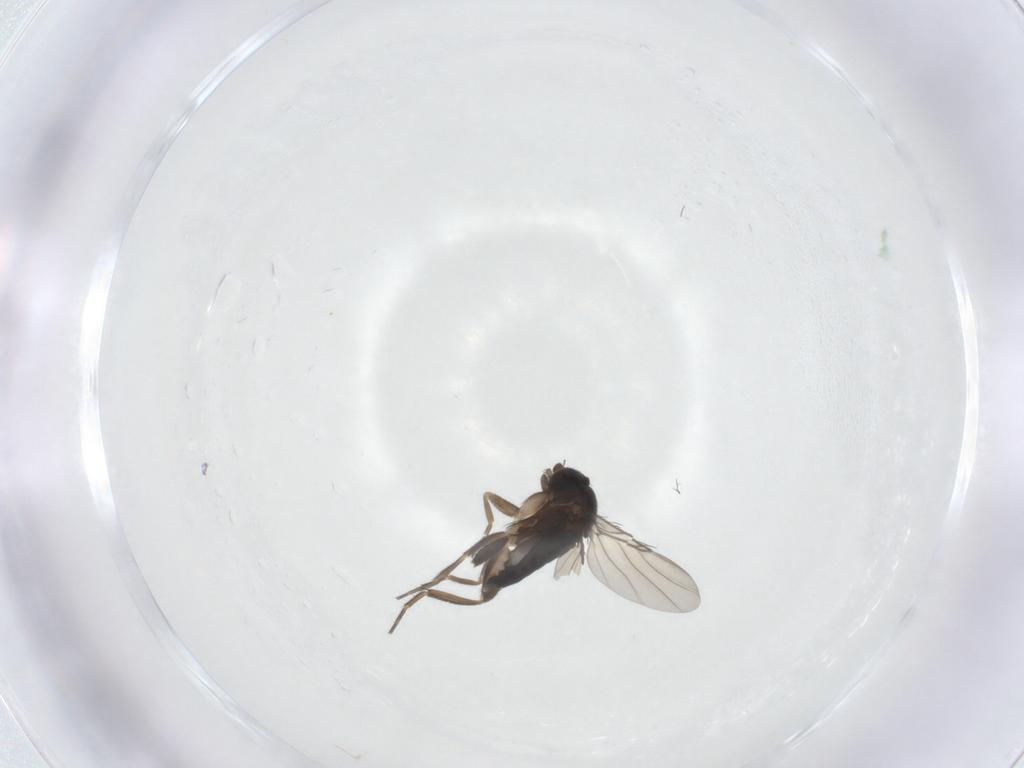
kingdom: Animalia
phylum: Arthropoda
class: Insecta
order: Diptera
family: Phoridae
